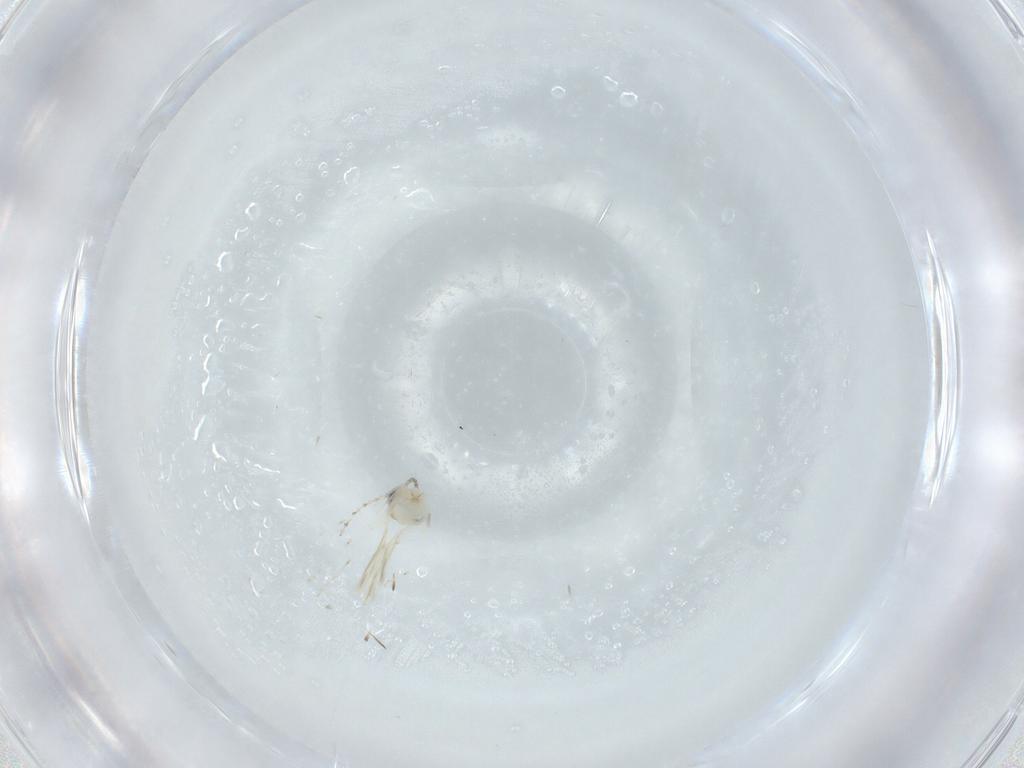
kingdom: Animalia
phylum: Arthropoda
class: Insecta
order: Diptera
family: Cecidomyiidae
